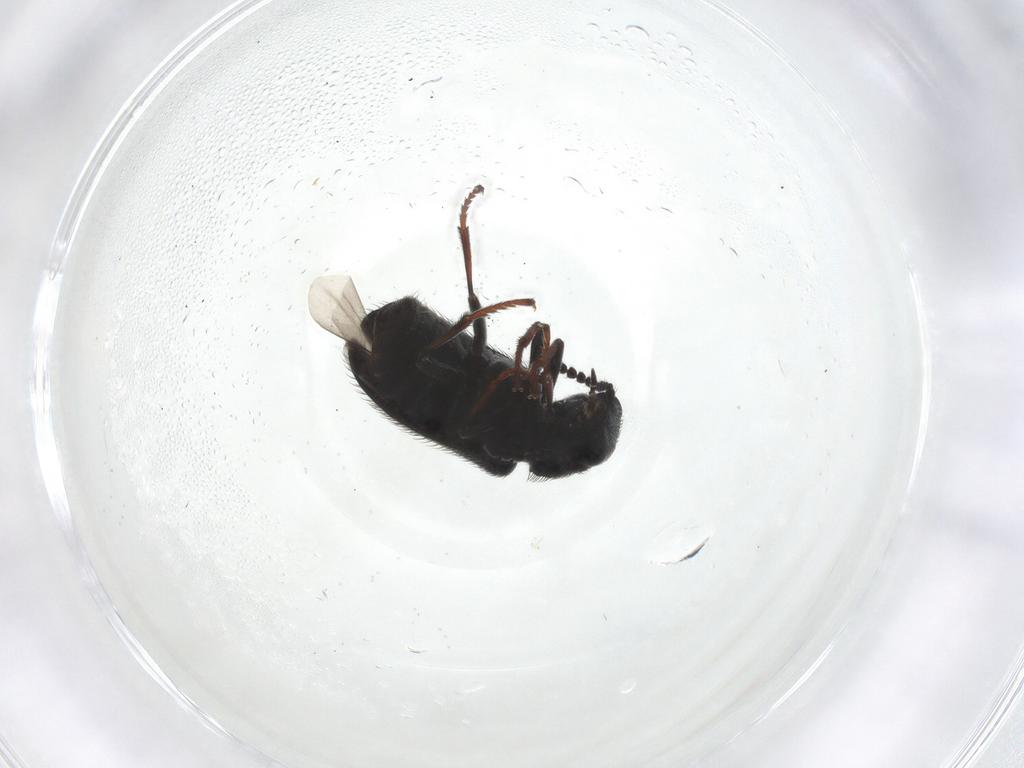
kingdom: Animalia
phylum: Arthropoda
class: Insecta
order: Coleoptera
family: Melyridae
